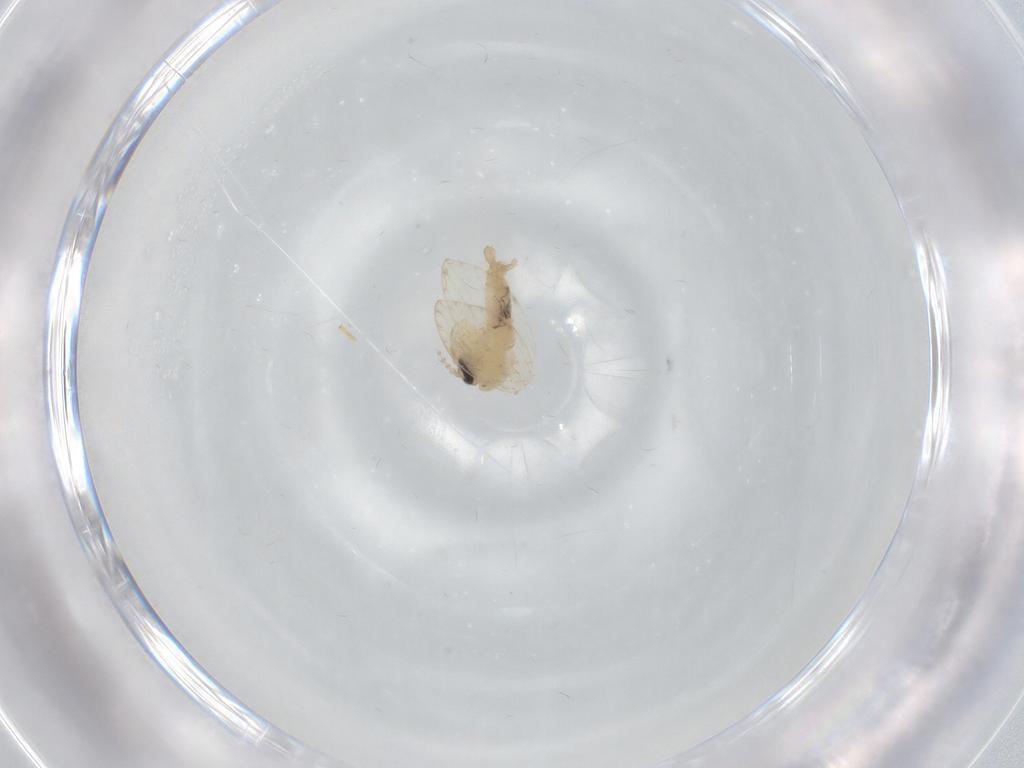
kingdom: Animalia
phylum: Arthropoda
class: Insecta
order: Diptera
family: Psychodidae
